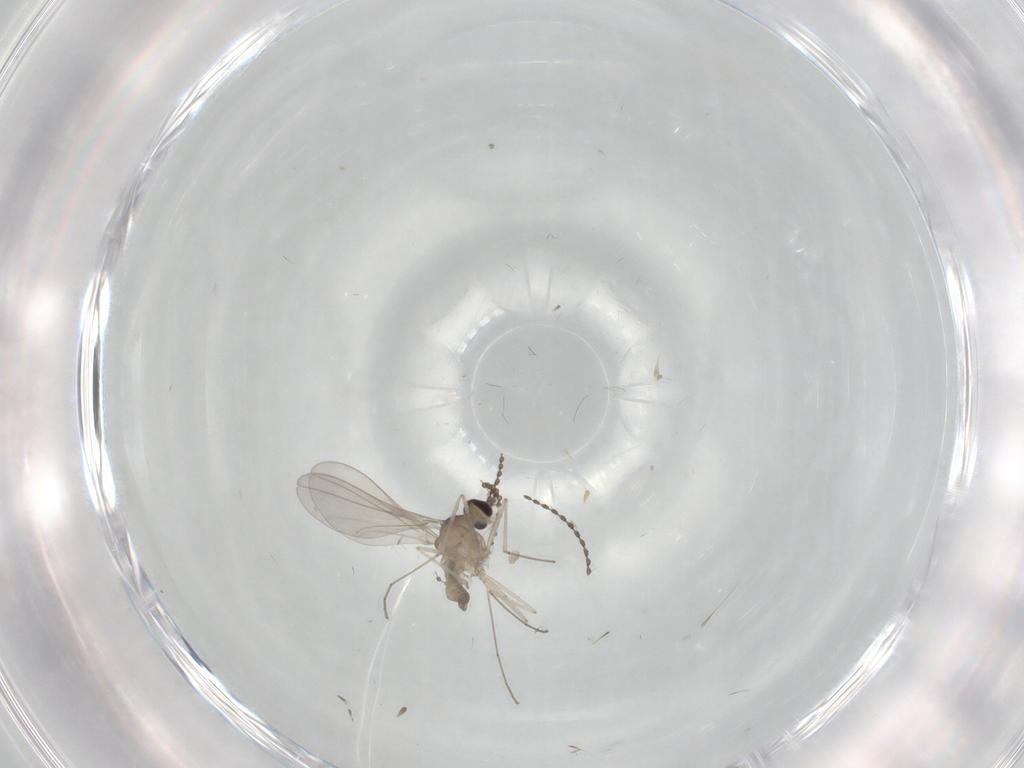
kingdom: Animalia
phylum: Arthropoda
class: Insecta
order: Diptera
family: Cecidomyiidae
